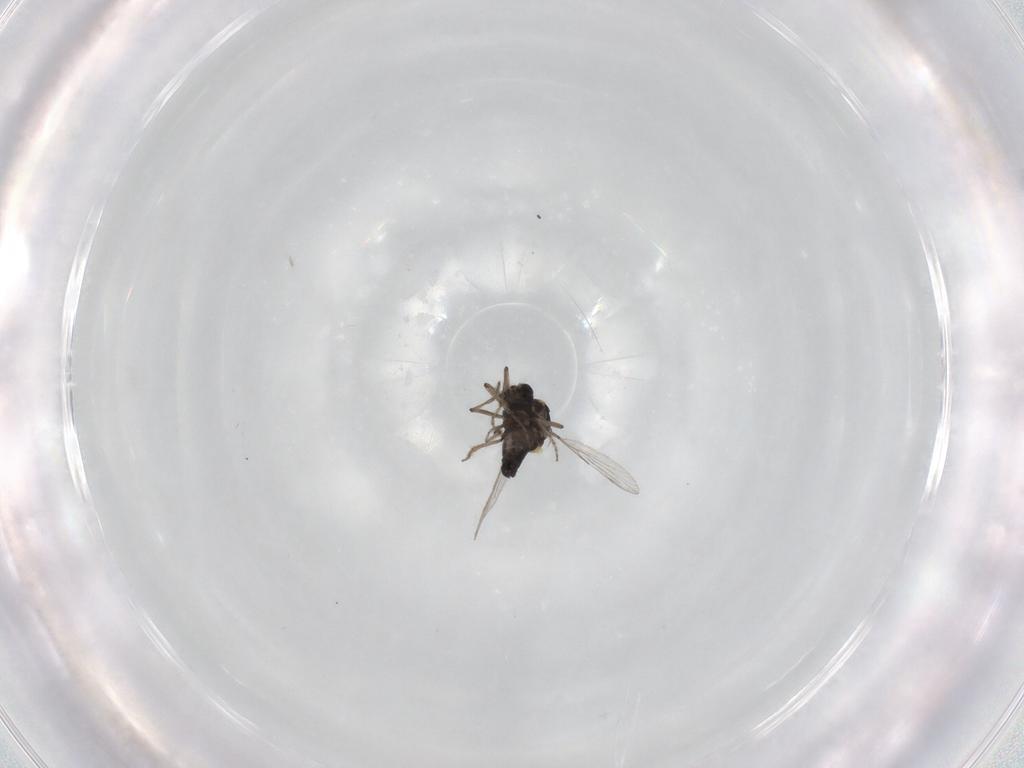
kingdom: Animalia
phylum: Arthropoda
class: Insecta
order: Diptera
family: Ceratopogonidae
